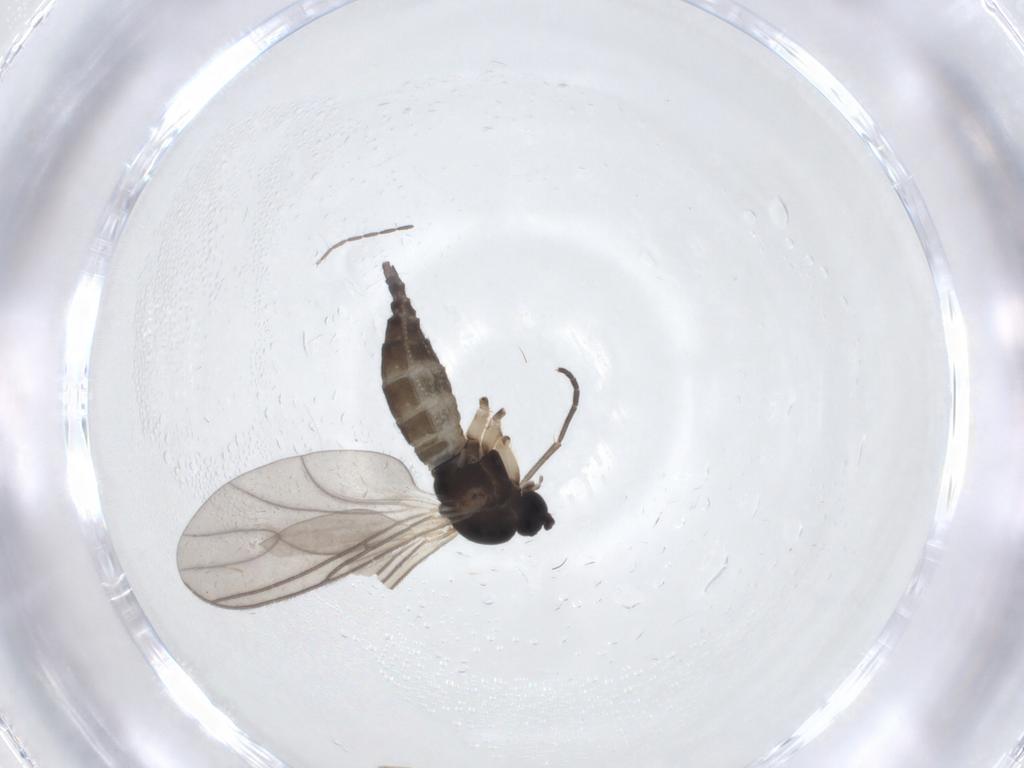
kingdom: Animalia
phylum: Arthropoda
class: Insecta
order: Diptera
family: Sciaridae
